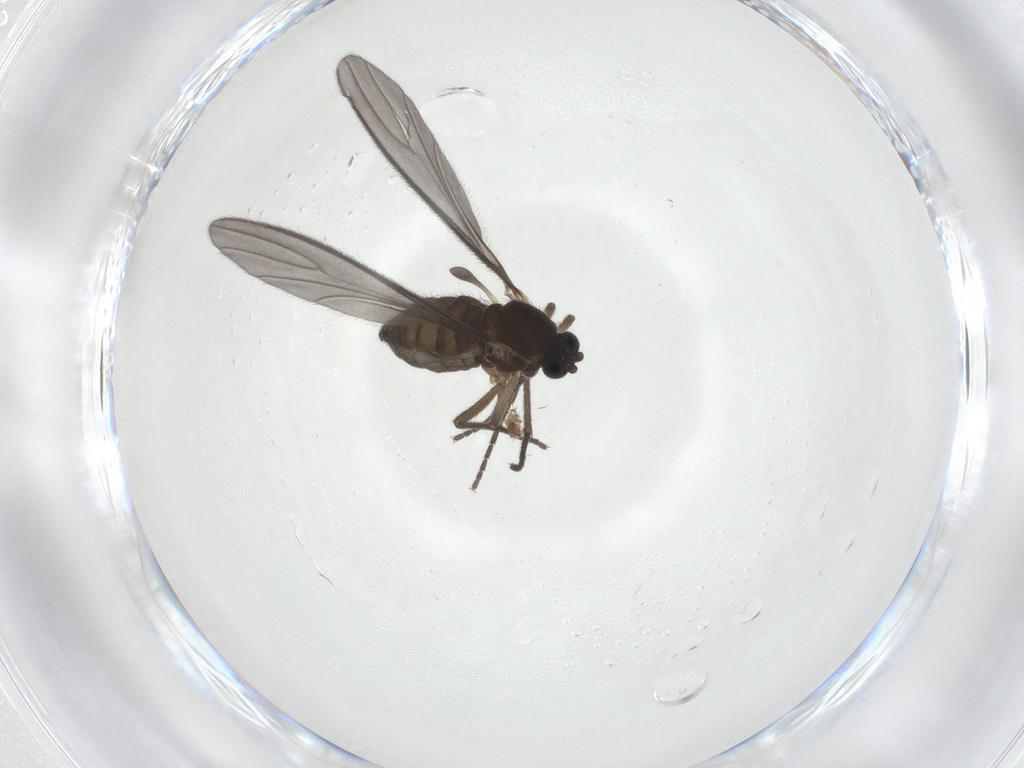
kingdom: Animalia
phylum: Arthropoda
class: Insecta
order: Diptera
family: Sciaridae
